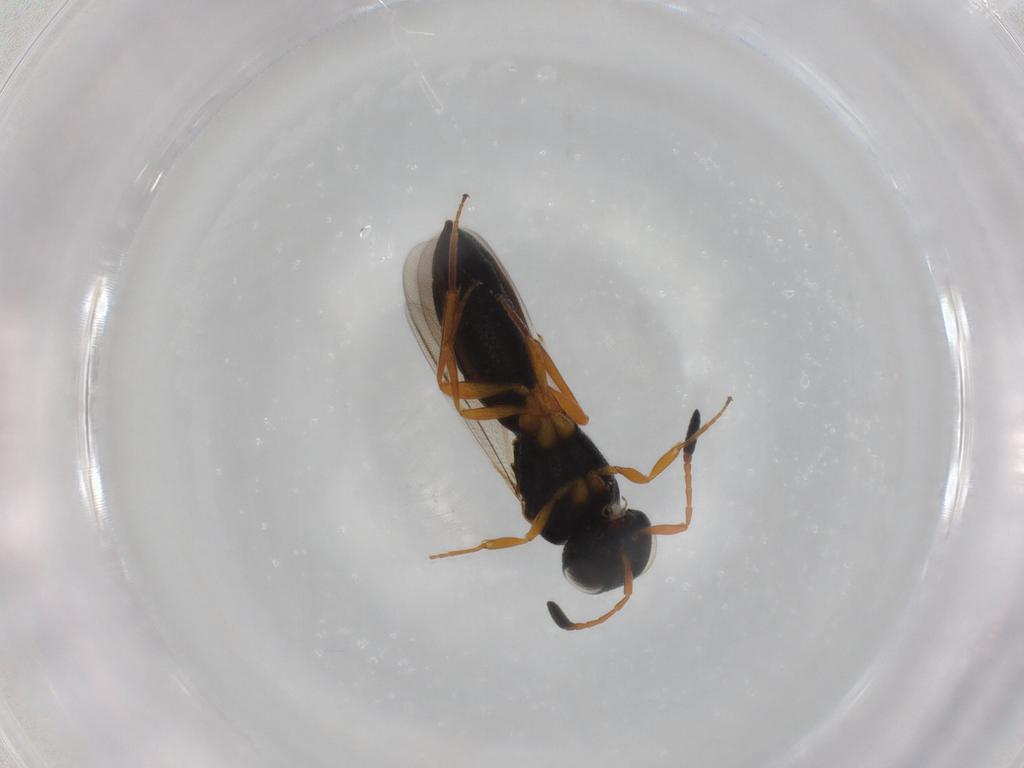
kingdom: Animalia
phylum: Arthropoda
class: Insecta
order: Hymenoptera
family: Scelionidae
